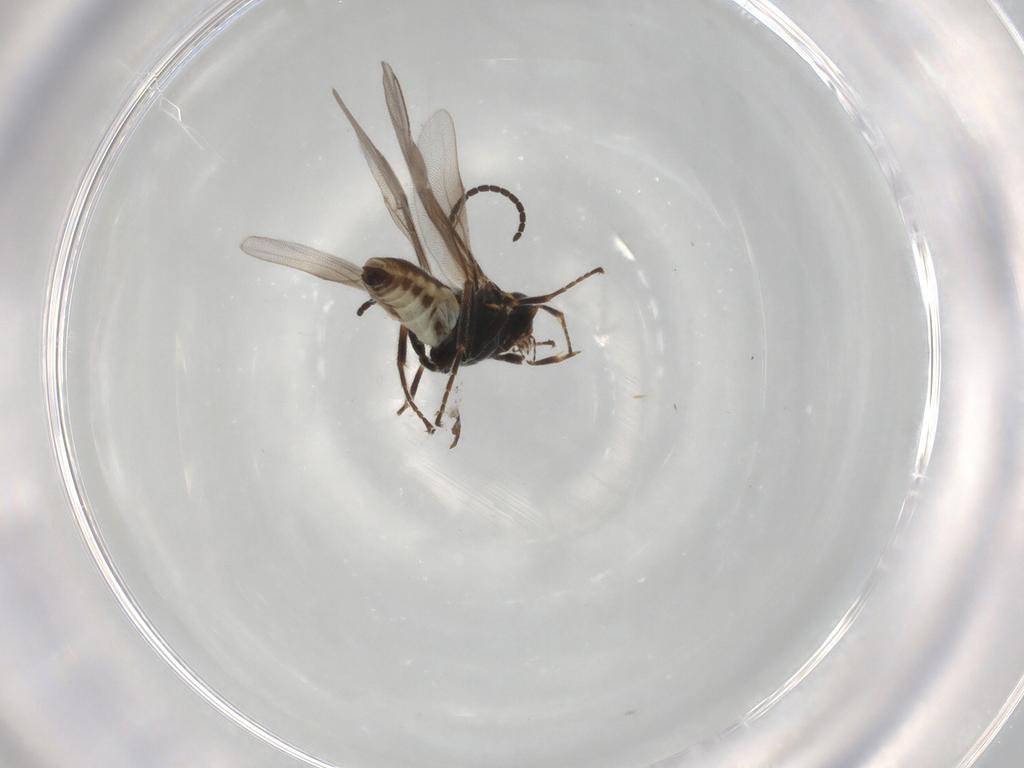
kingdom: Animalia
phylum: Arthropoda
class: Insecta
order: Hymenoptera
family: Braconidae
